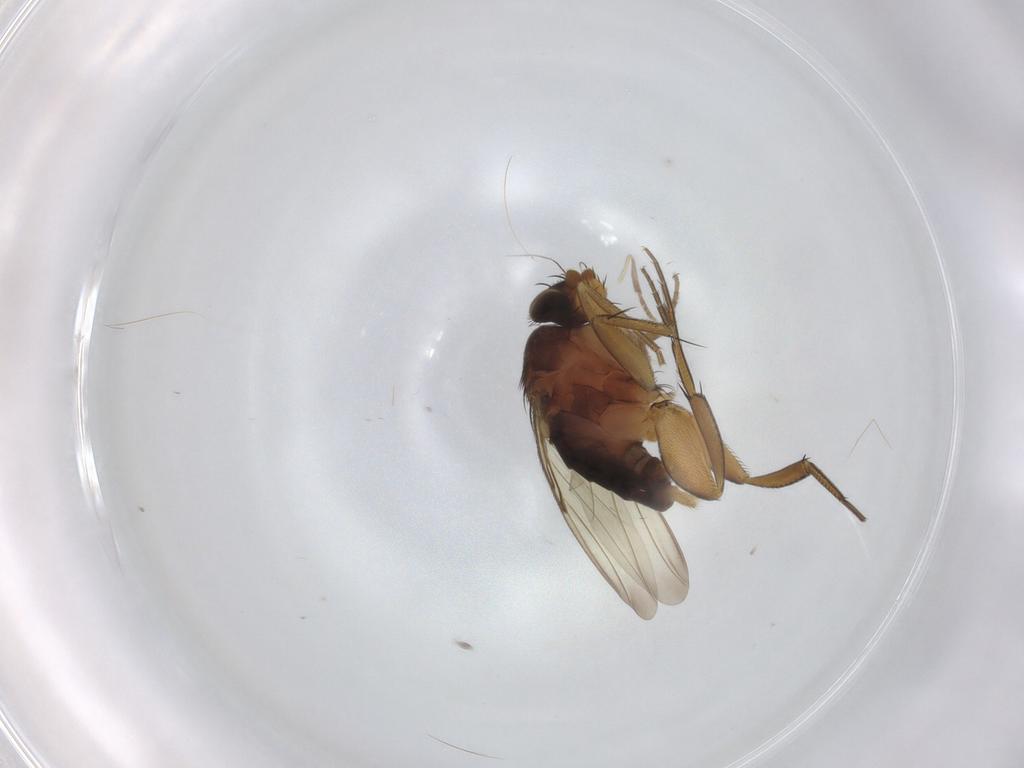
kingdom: Animalia
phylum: Arthropoda
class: Insecta
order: Diptera
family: Phoridae
